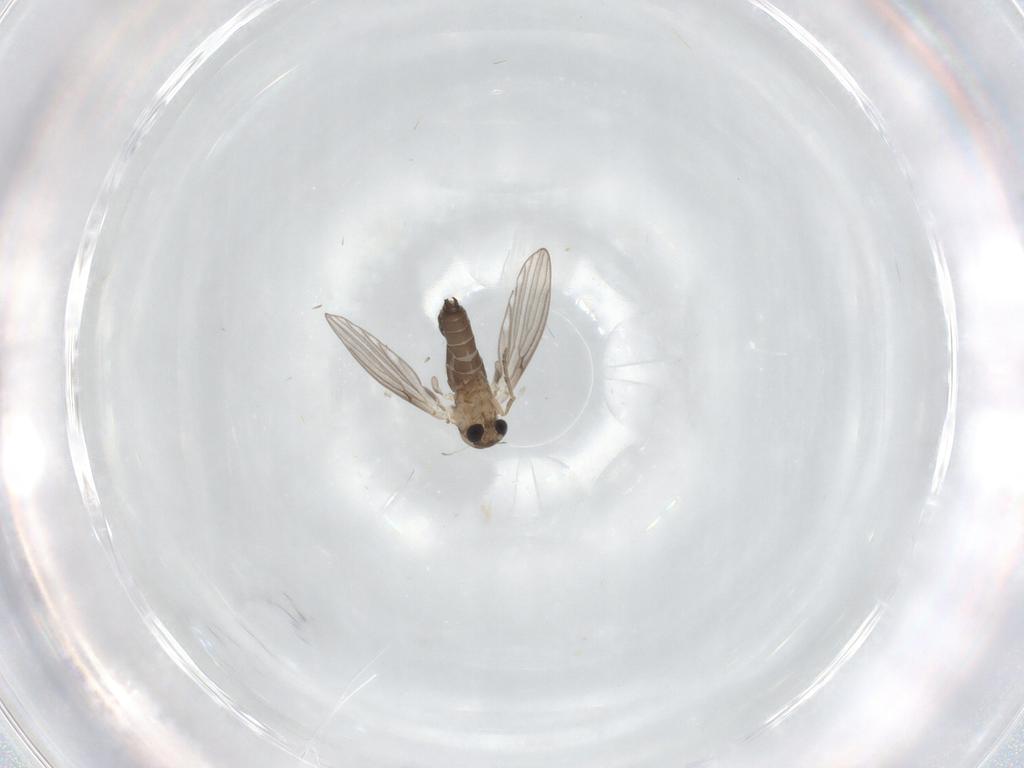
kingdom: Animalia
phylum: Arthropoda
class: Insecta
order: Diptera
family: Psychodidae
